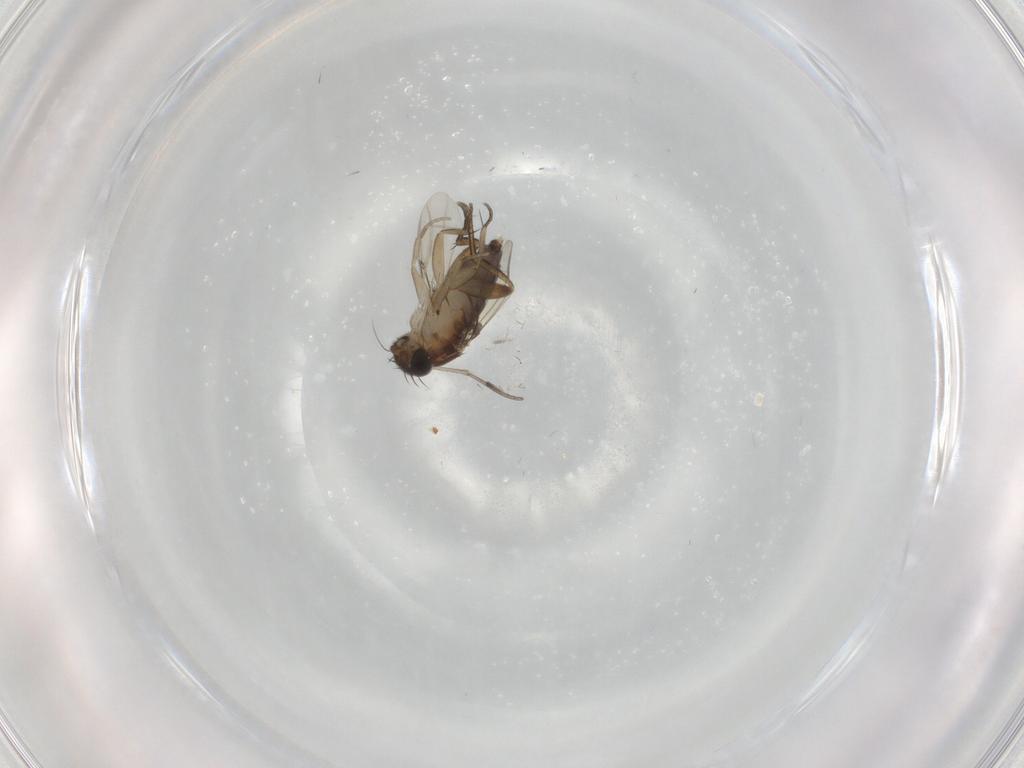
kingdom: Animalia
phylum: Arthropoda
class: Insecta
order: Diptera
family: Phoridae
